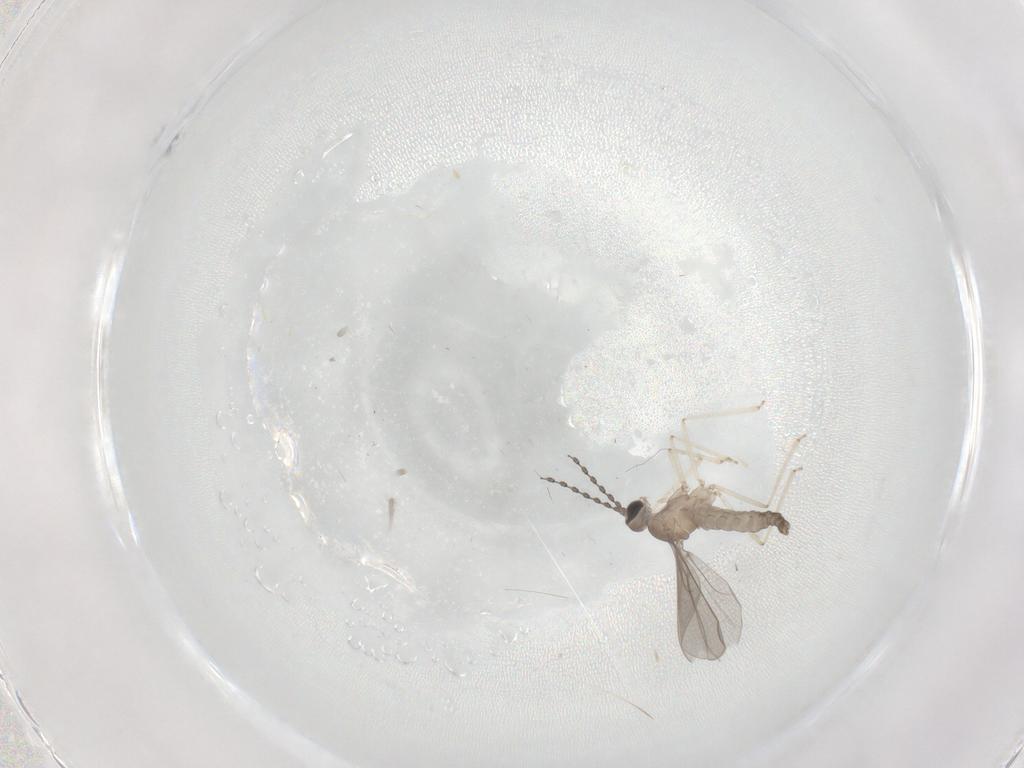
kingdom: Animalia
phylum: Arthropoda
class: Insecta
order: Diptera
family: Dolichopodidae
